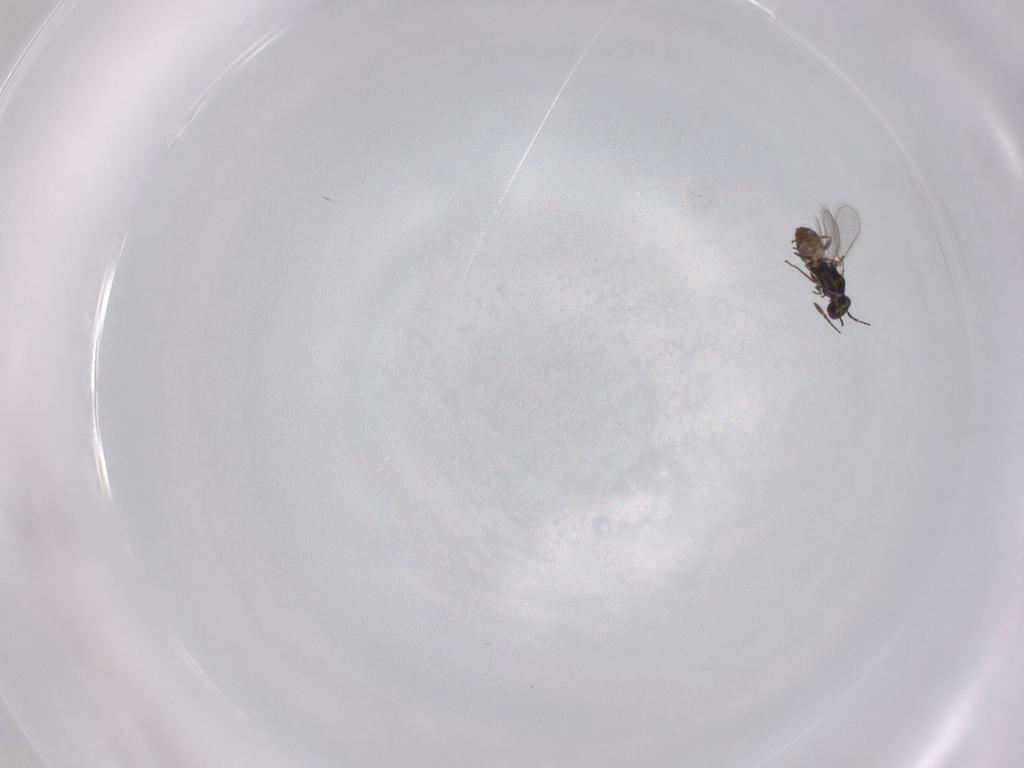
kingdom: Animalia
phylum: Arthropoda
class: Insecta
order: Hymenoptera
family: Mymaridae
